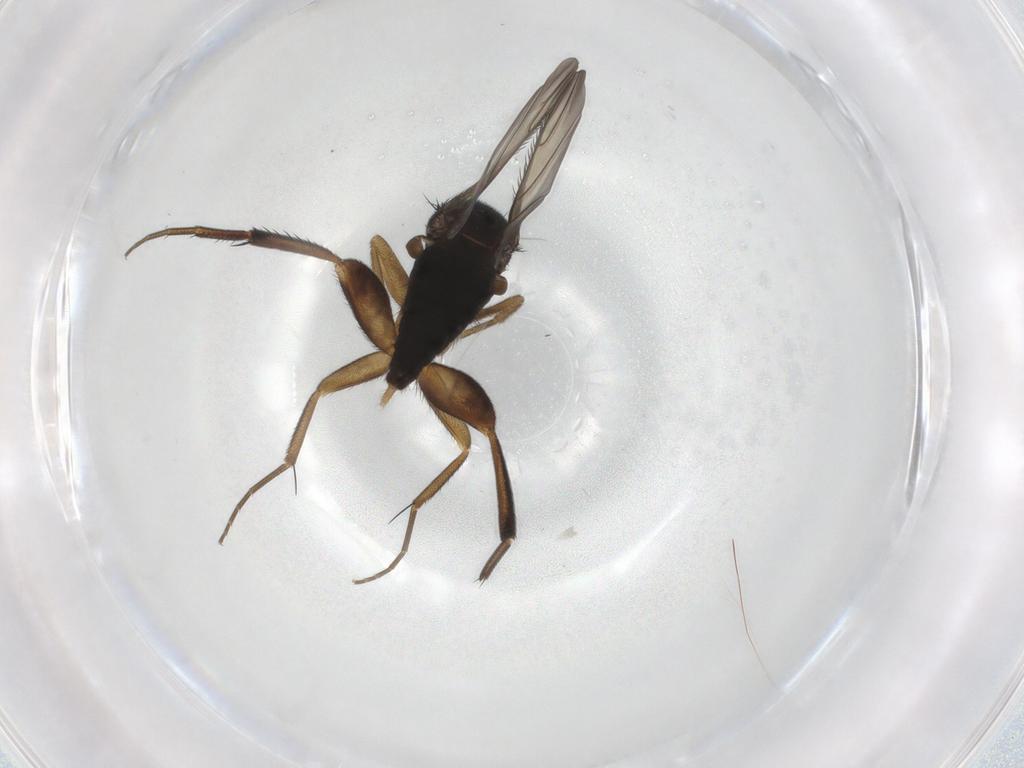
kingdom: Animalia
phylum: Arthropoda
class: Insecta
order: Diptera
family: Phoridae
